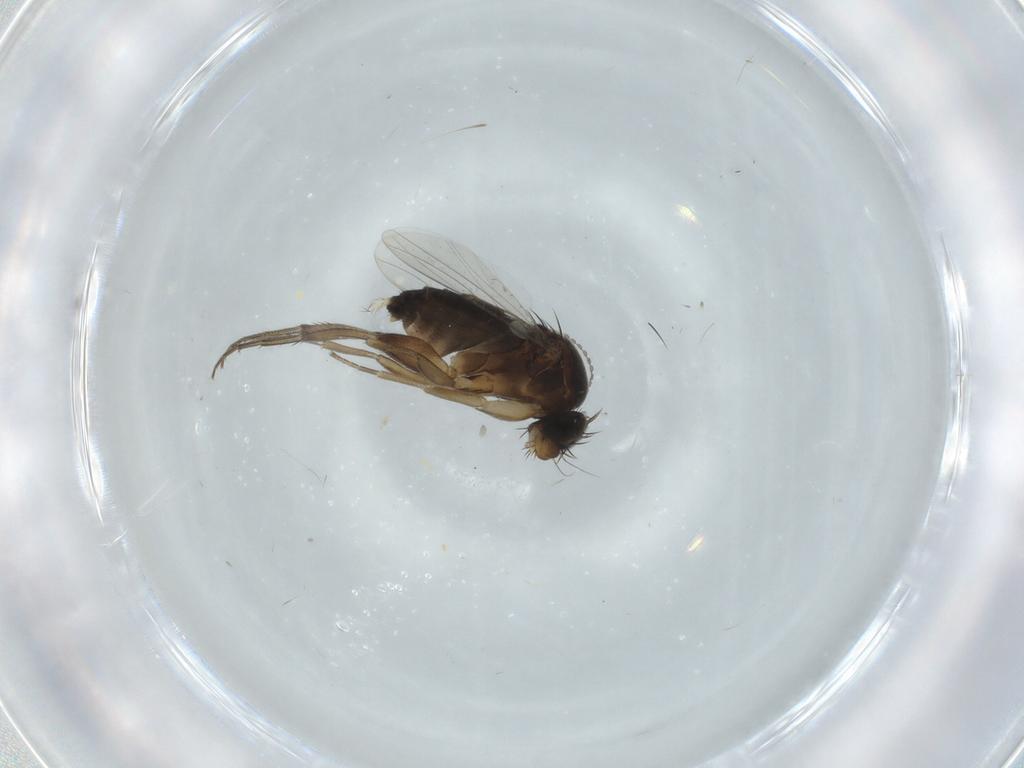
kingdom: Animalia
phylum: Arthropoda
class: Insecta
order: Diptera
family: Phoridae
